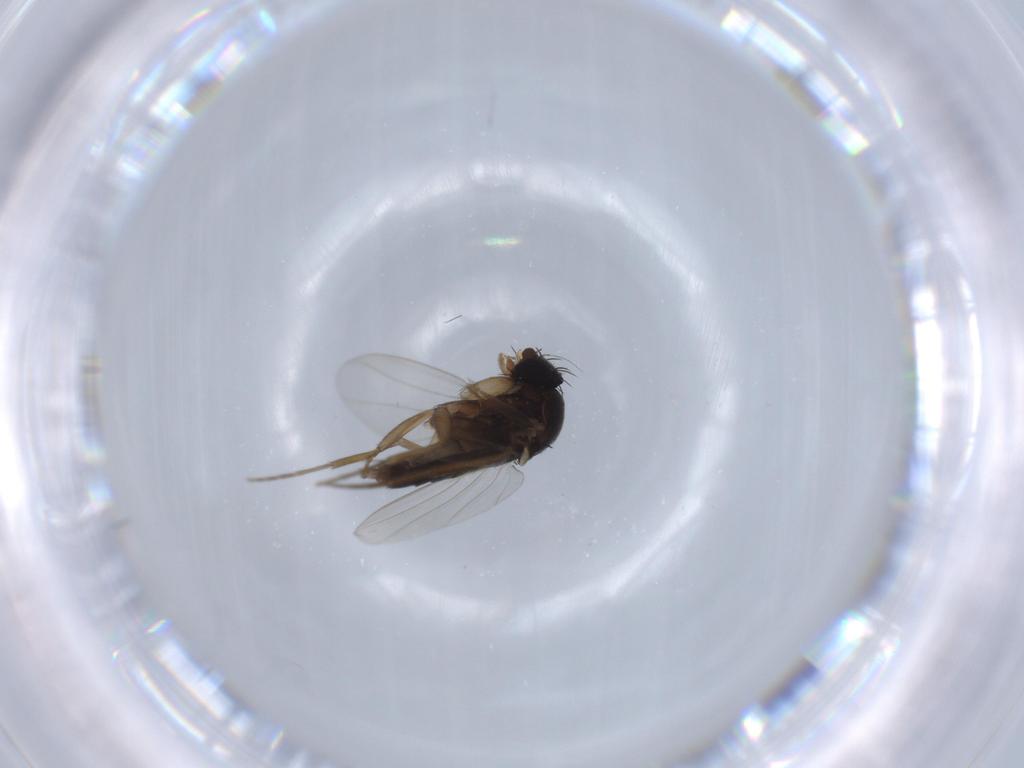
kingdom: Animalia
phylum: Arthropoda
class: Insecta
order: Diptera
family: Phoridae
